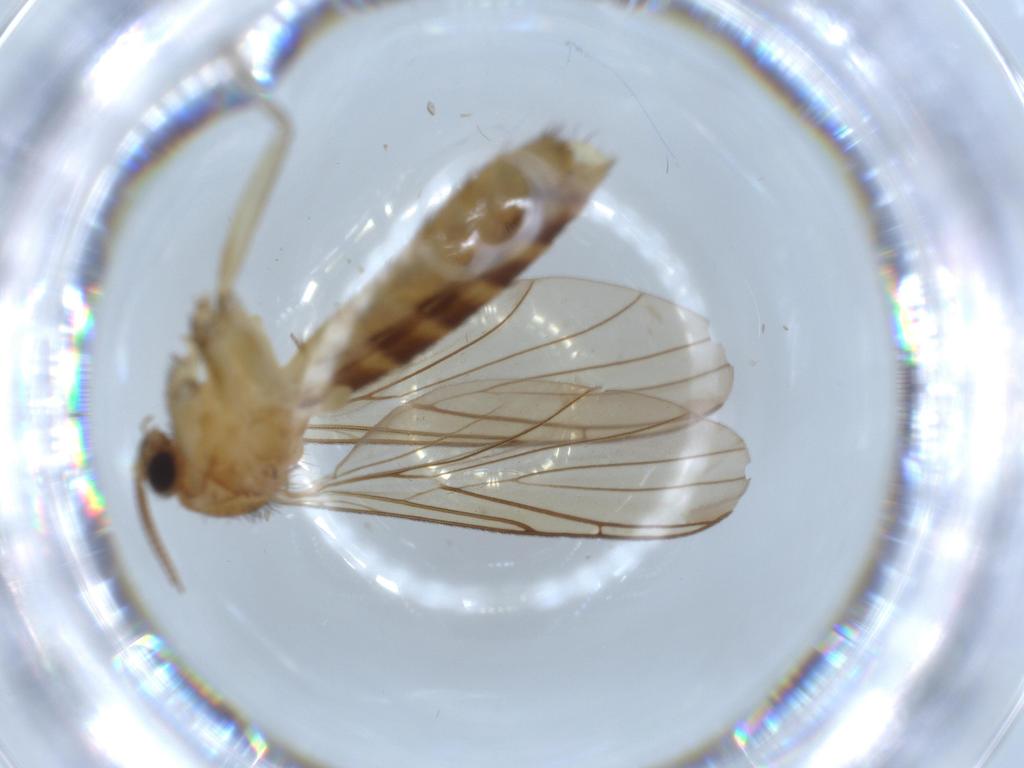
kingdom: Animalia
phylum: Arthropoda
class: Insecta
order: Diptera
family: Keroplatidae
